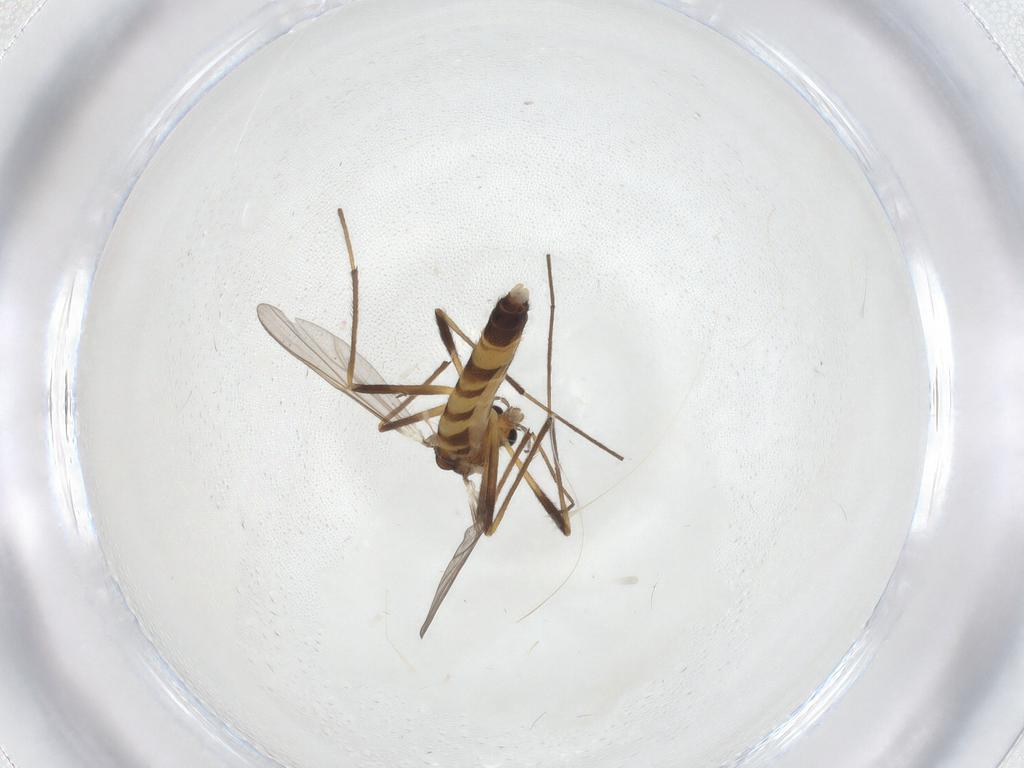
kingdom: Animalia
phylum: Arthropoda
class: Insecta
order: Diptera
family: Chironomidae
